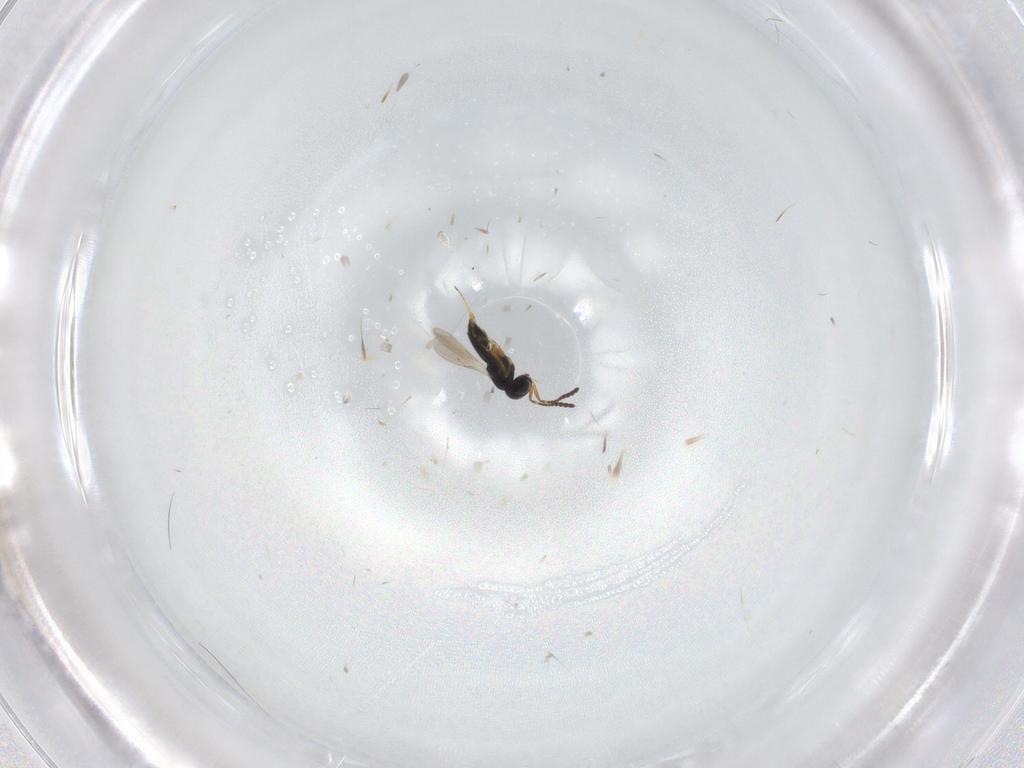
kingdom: Animalia
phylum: Arthropoda
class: Insecta
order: Hymenoptera
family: Scelionidae
